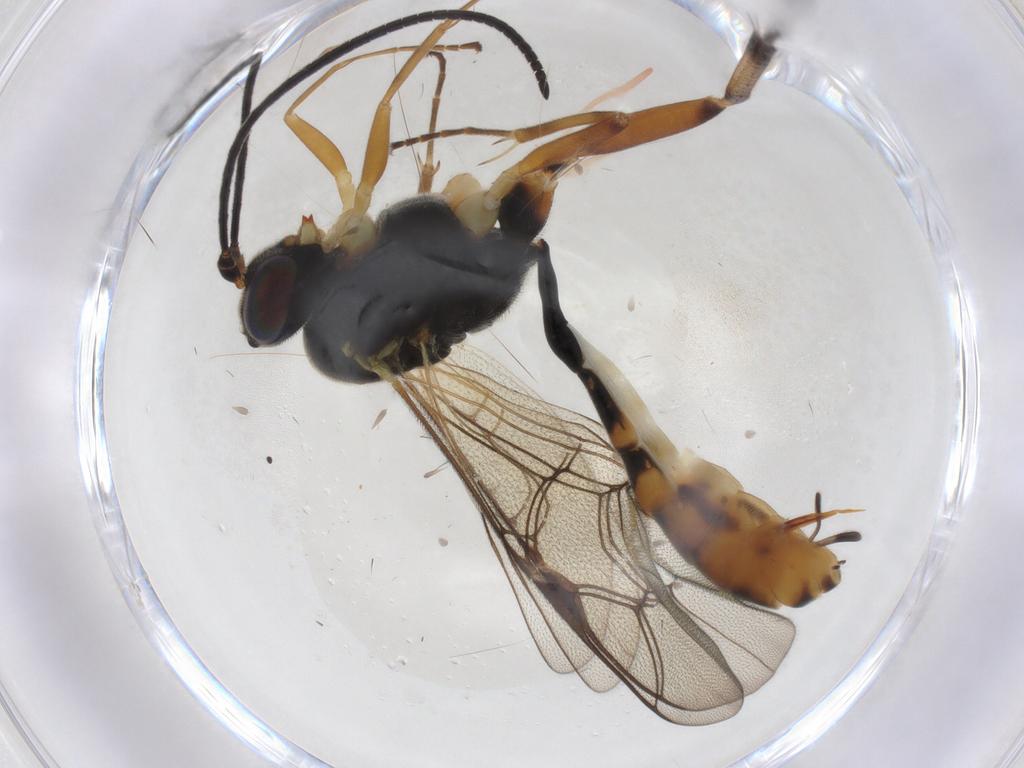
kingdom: Animalia
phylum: Arthropoda
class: Insecta
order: Hymenoptera
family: Ichneumonidae
